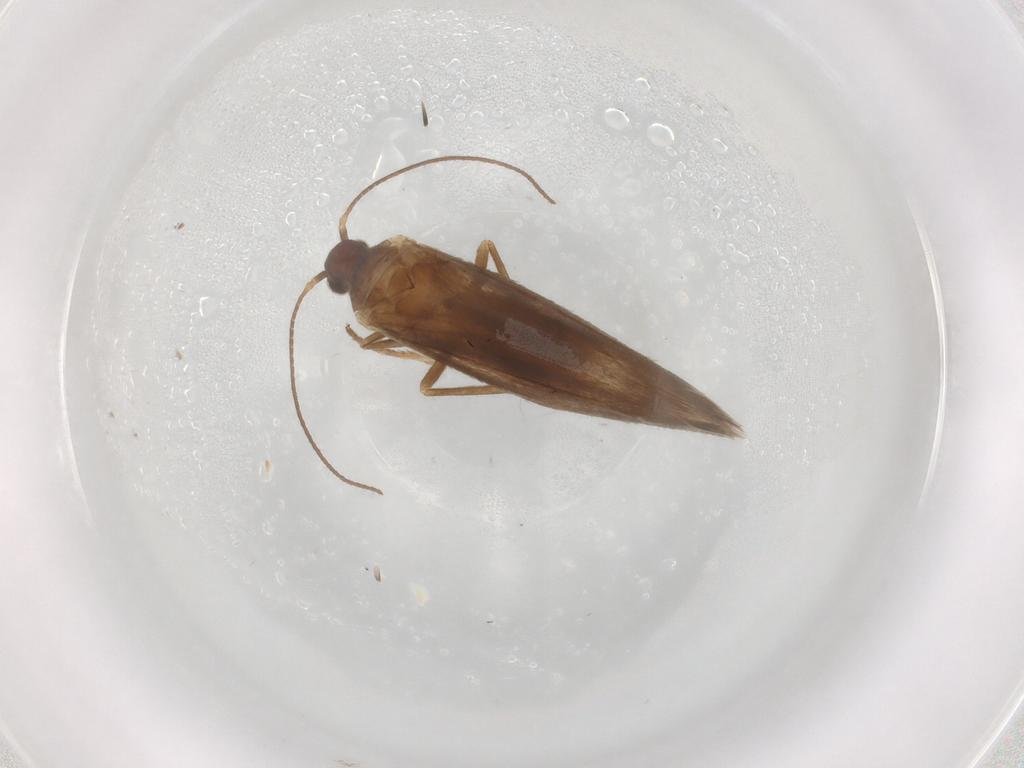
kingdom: Animalia
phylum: Arthropoda
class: Insecta
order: Lepidoptera
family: Limacodidae
